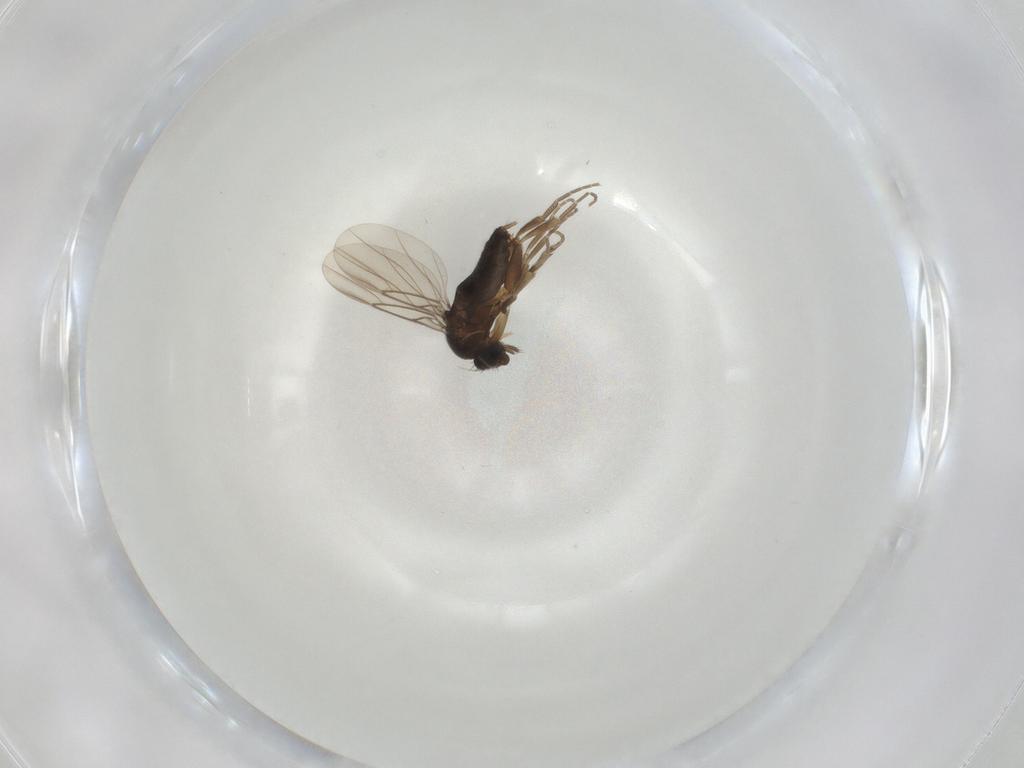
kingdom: Animalia
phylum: Arthropoda
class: Insecta
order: Diptera
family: Phoridae
